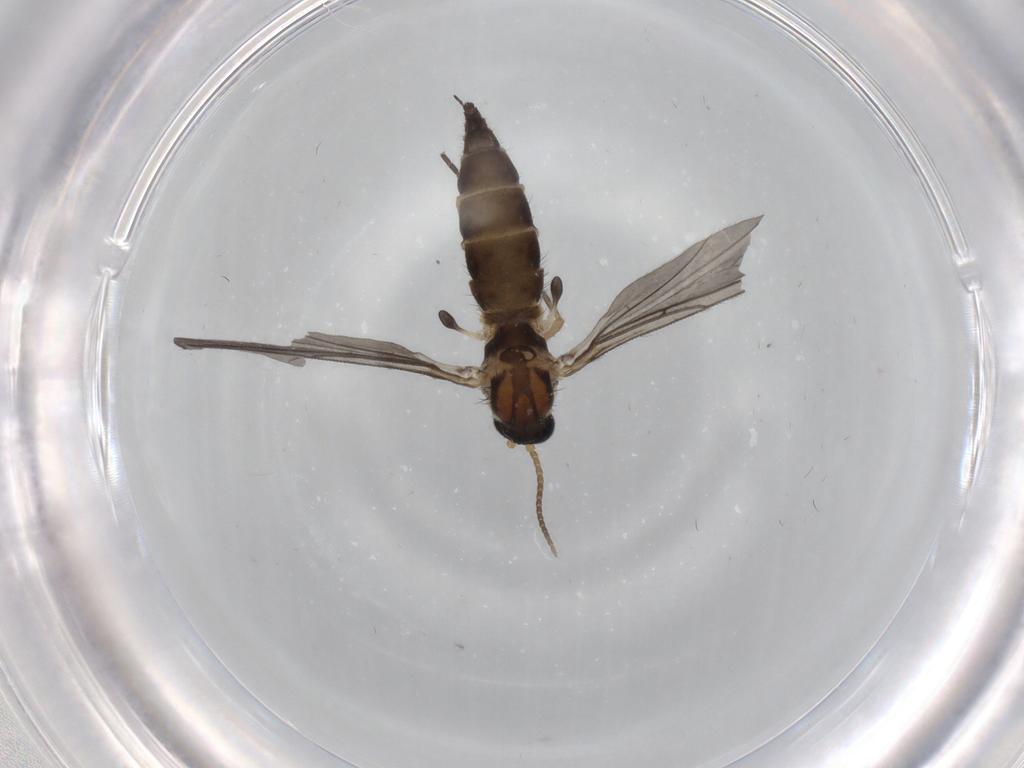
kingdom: Animalia
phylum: Arthropoda
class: Insecta
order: Diptera
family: Sciaridae
